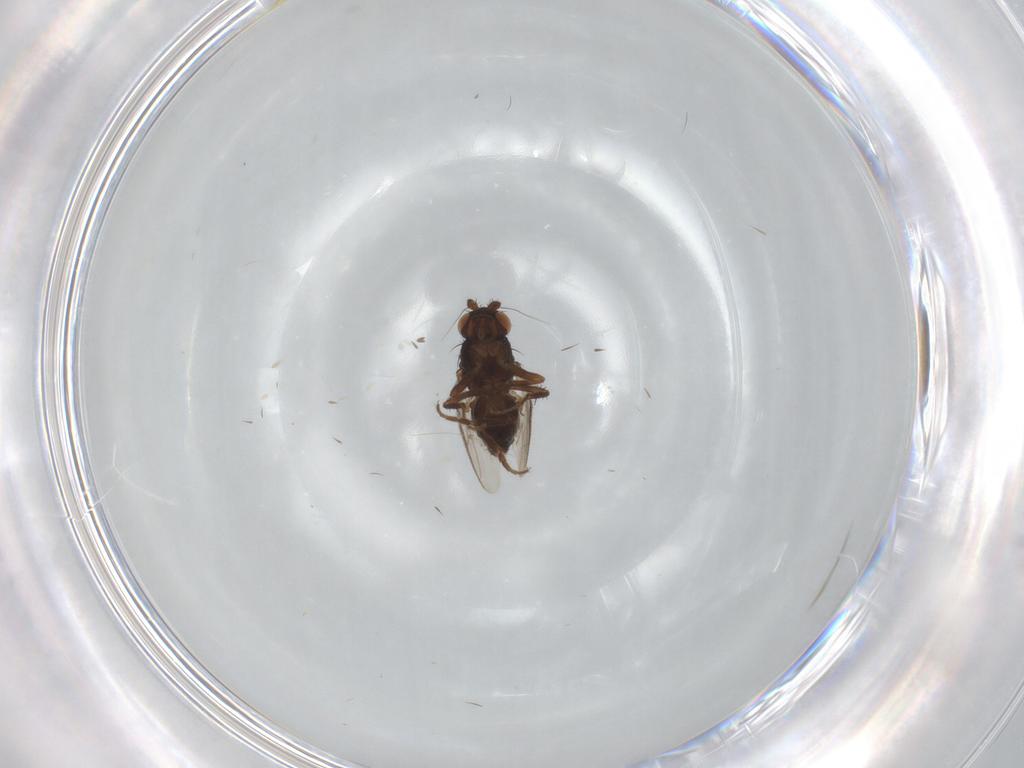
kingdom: Animalia
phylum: Arthropoda
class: Insecta
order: Diptera
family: Sphaeroceridae
